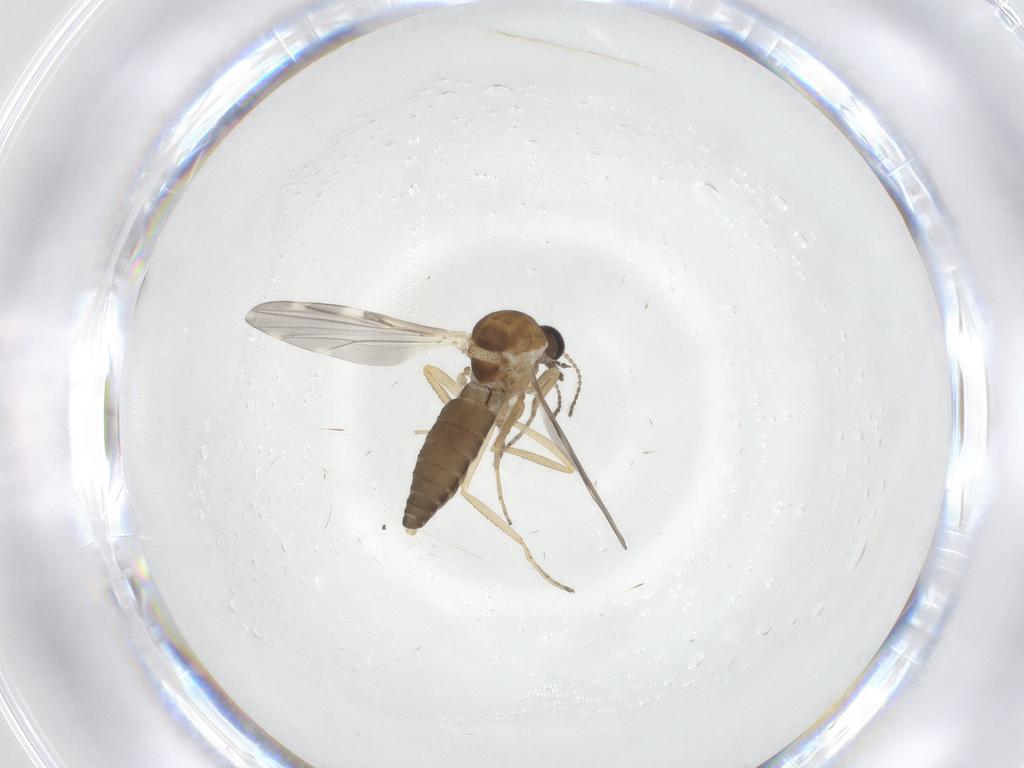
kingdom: Animalia
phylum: Arthropoda
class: Insecta
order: Diptera
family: Ceratopogonidae
